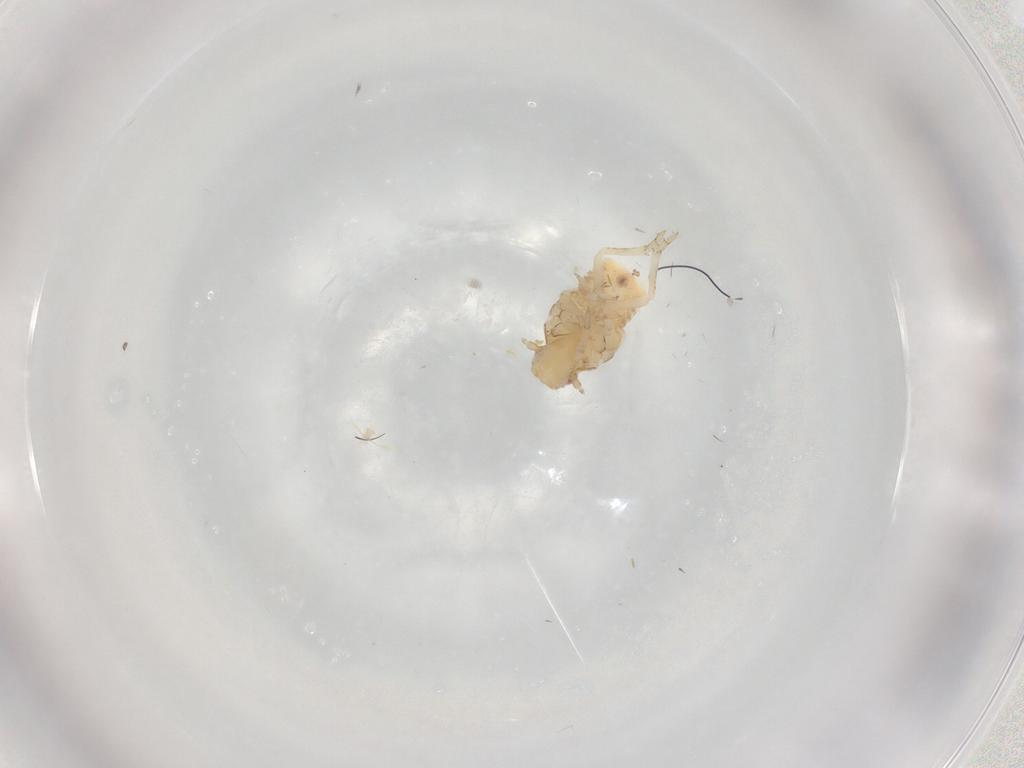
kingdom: Animalia
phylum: Arthropoda
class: Insecta
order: Hemiptera
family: Flatidae
